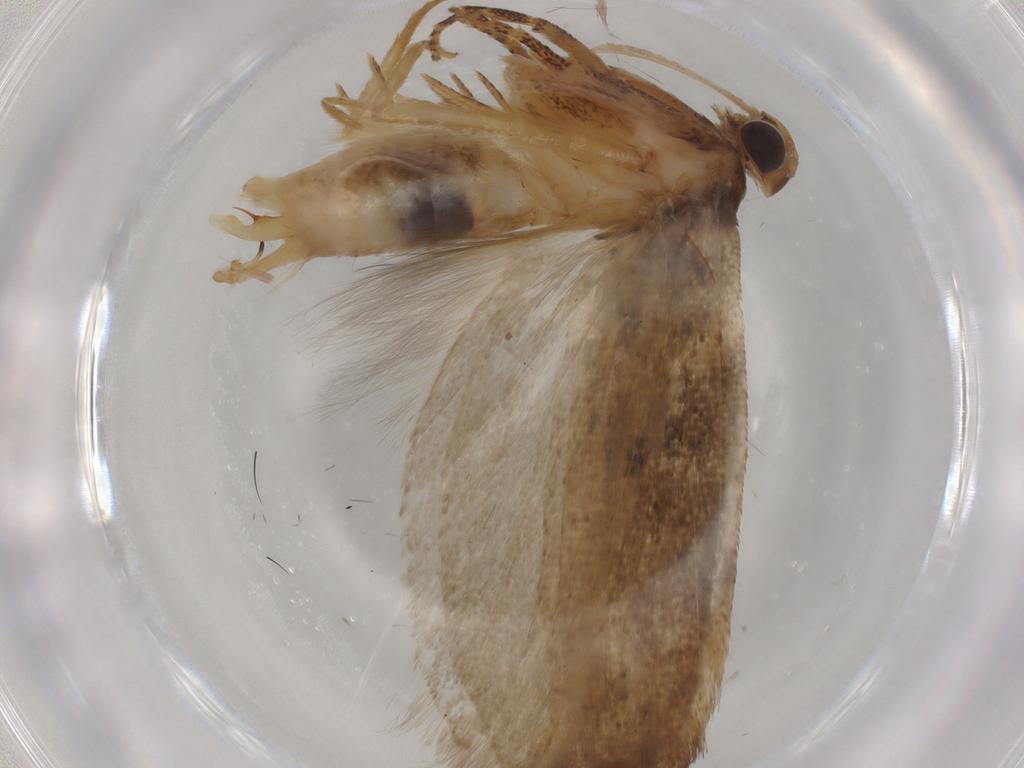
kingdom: Animalia
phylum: Arthropoda
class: Insecta
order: Lepidoptera
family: Gelechiidae
